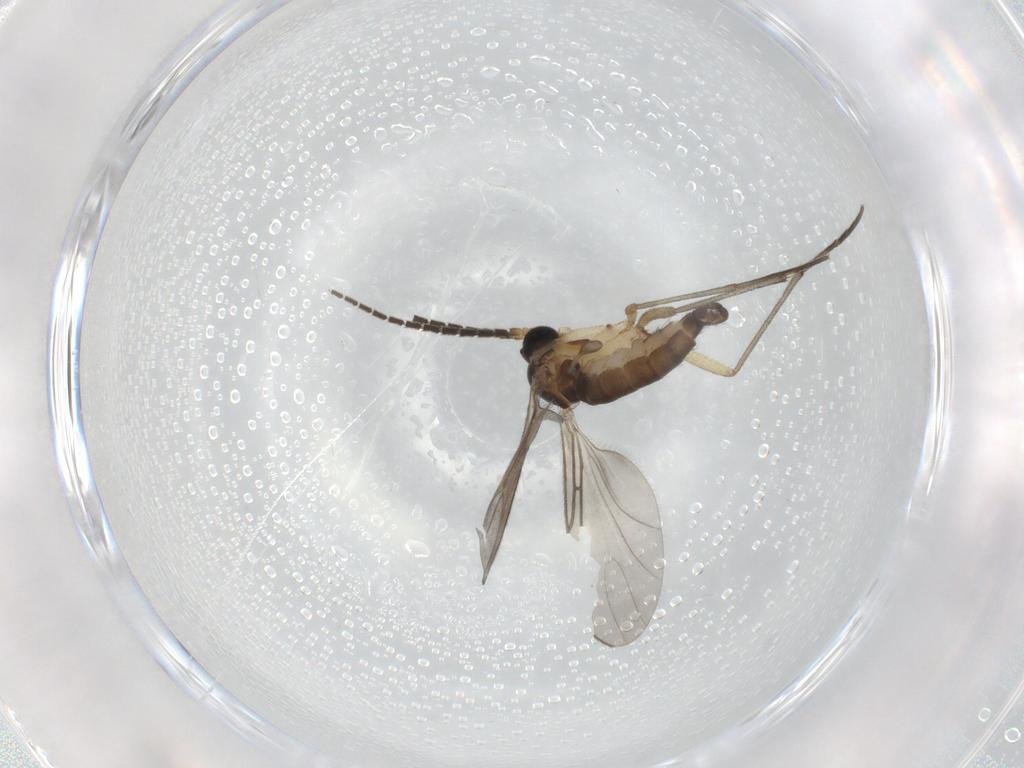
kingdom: Animalia
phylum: Arthropoda
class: Insecta
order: Diptera
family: Sciaridae
